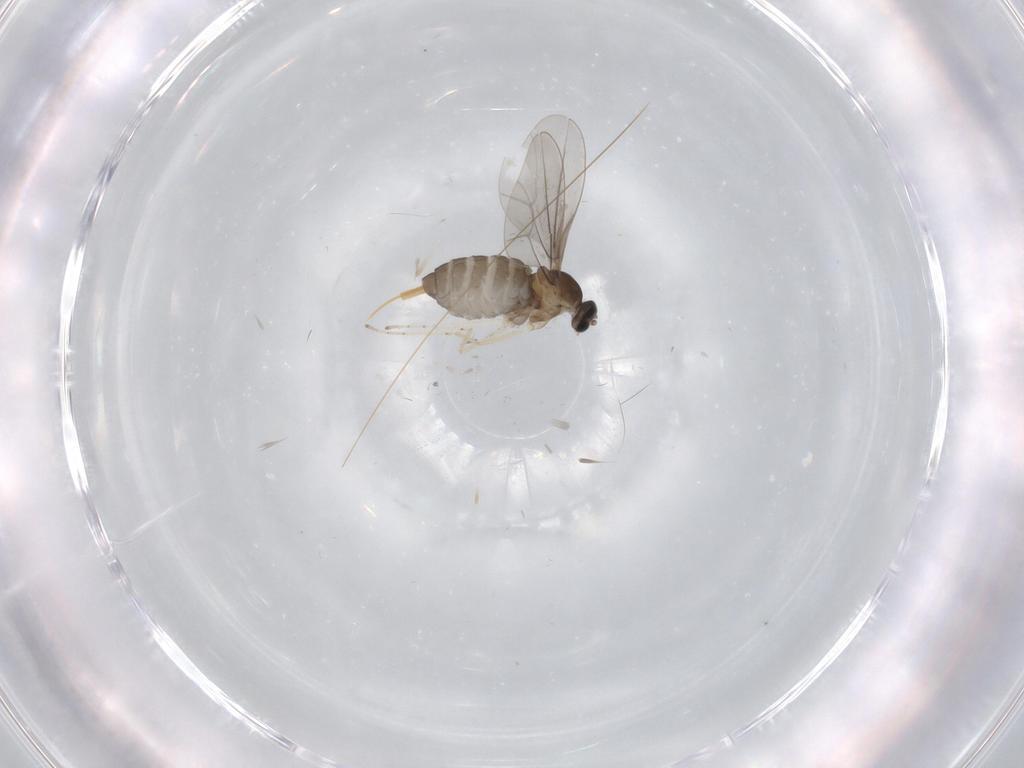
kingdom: Animalia
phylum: Arthropoda
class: Insecta
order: Diptera
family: Cecidomyiidae
